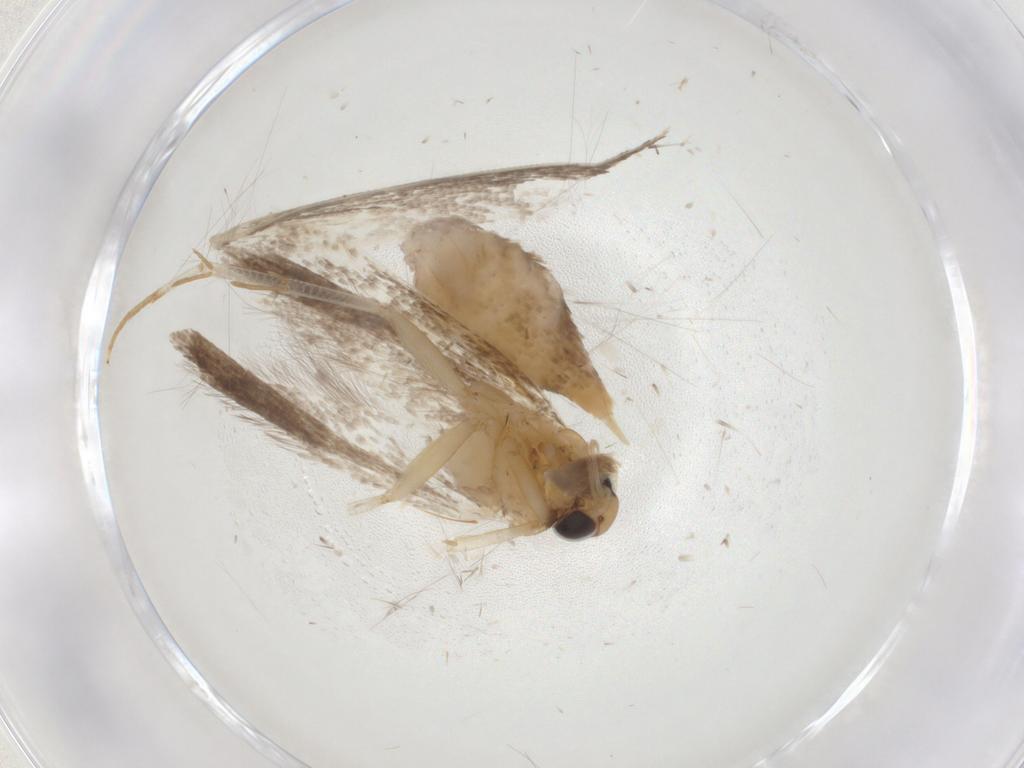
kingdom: Animalia
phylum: Arthropoda
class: Insecta
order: Lepidoptera
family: Gelechiidae
